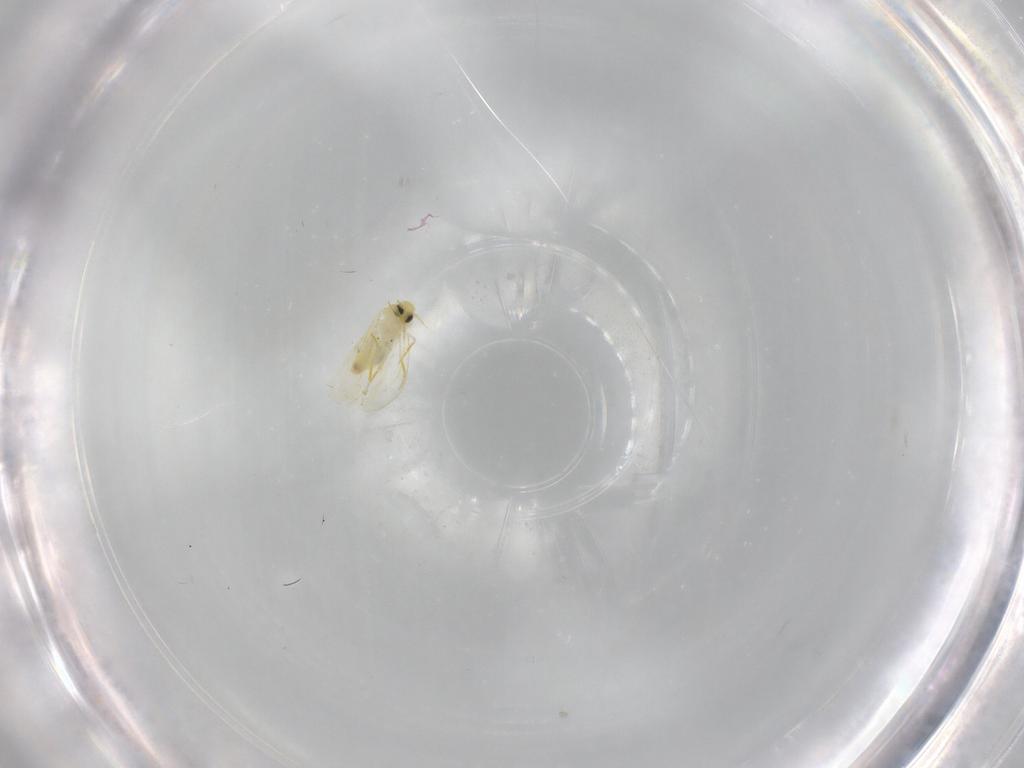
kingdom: Animalia
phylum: Arthropoda
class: Insecta
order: Hemiptera
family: Aleyrodidae
